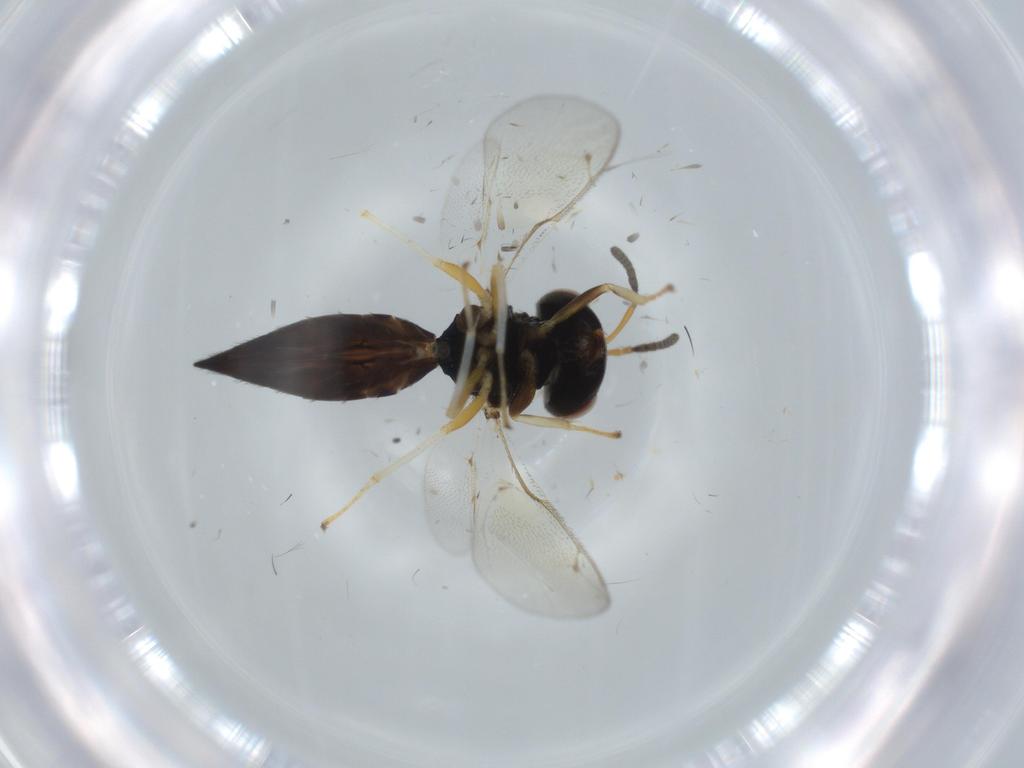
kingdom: Animalia
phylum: Arthropoda
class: Insecta
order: Hymenoptera
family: Pteromalidae
